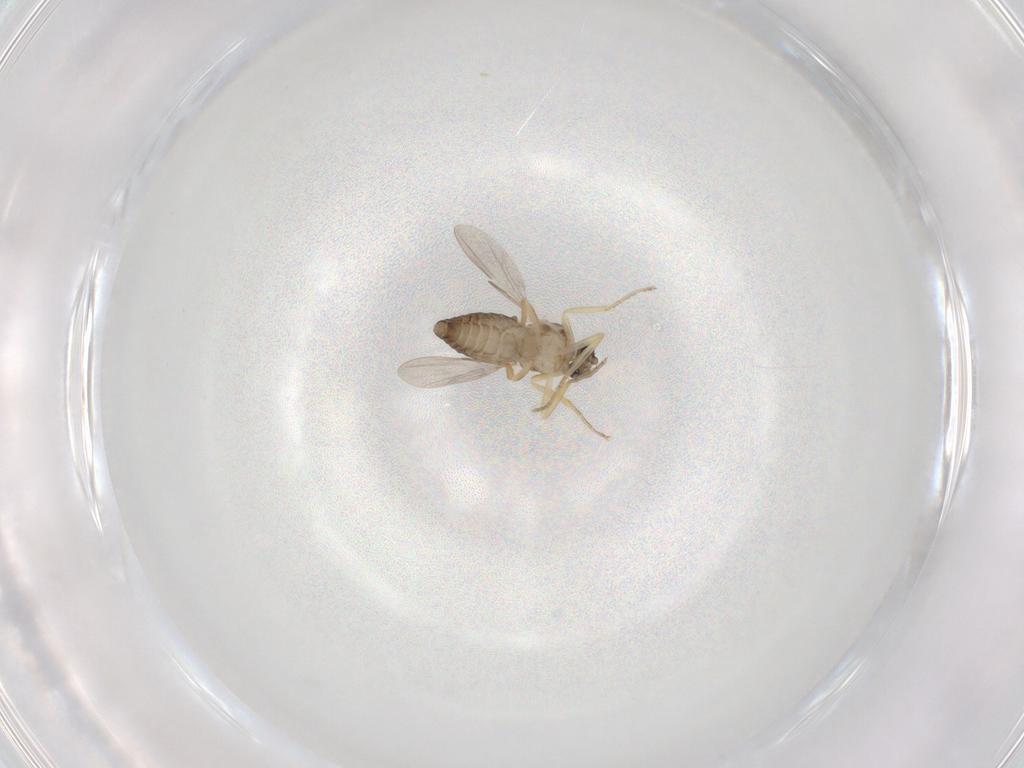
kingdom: Animalia
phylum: Arthropoda
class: Insecta
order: Diptera
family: Ceratopogonidae
